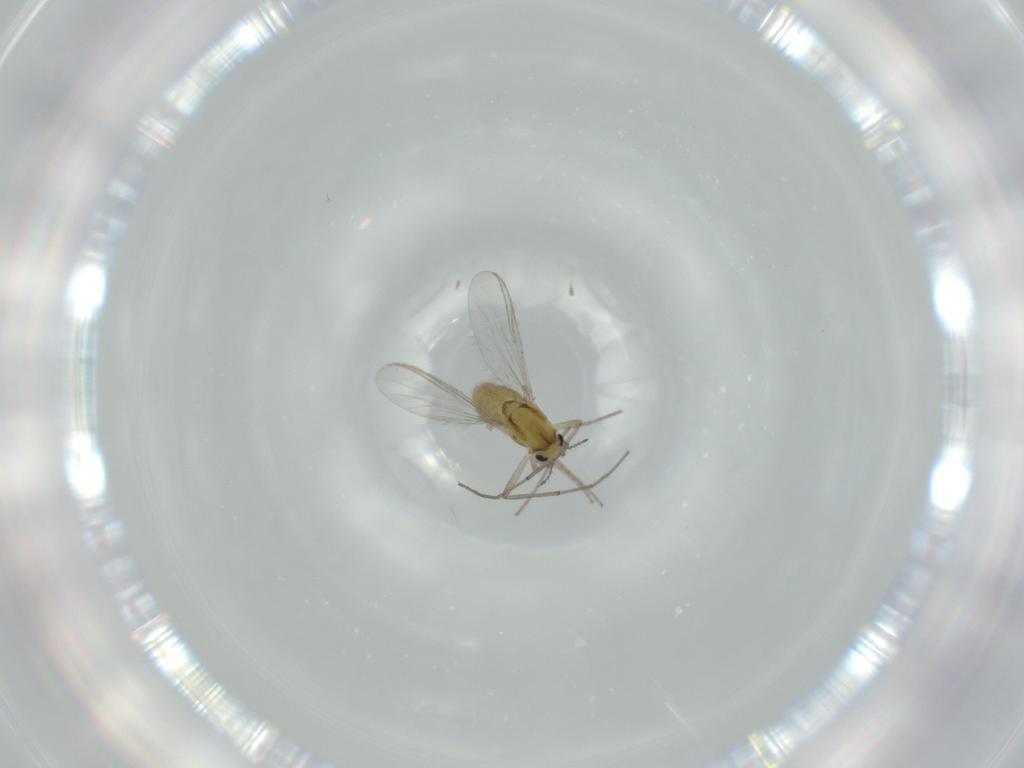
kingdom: Animalia
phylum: Arthropoda
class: Insecta
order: Diptera
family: Chironomidae
